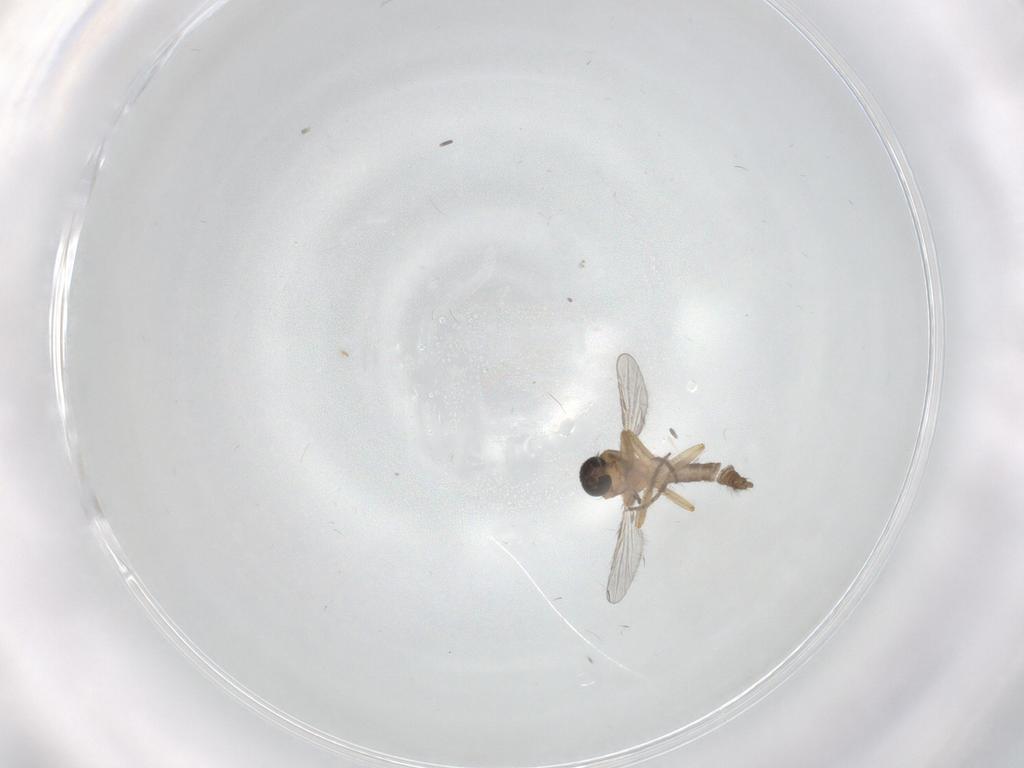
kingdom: Animalia
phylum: Arthropoda
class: Insecta
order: Diptera
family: Ceratopogonidae
